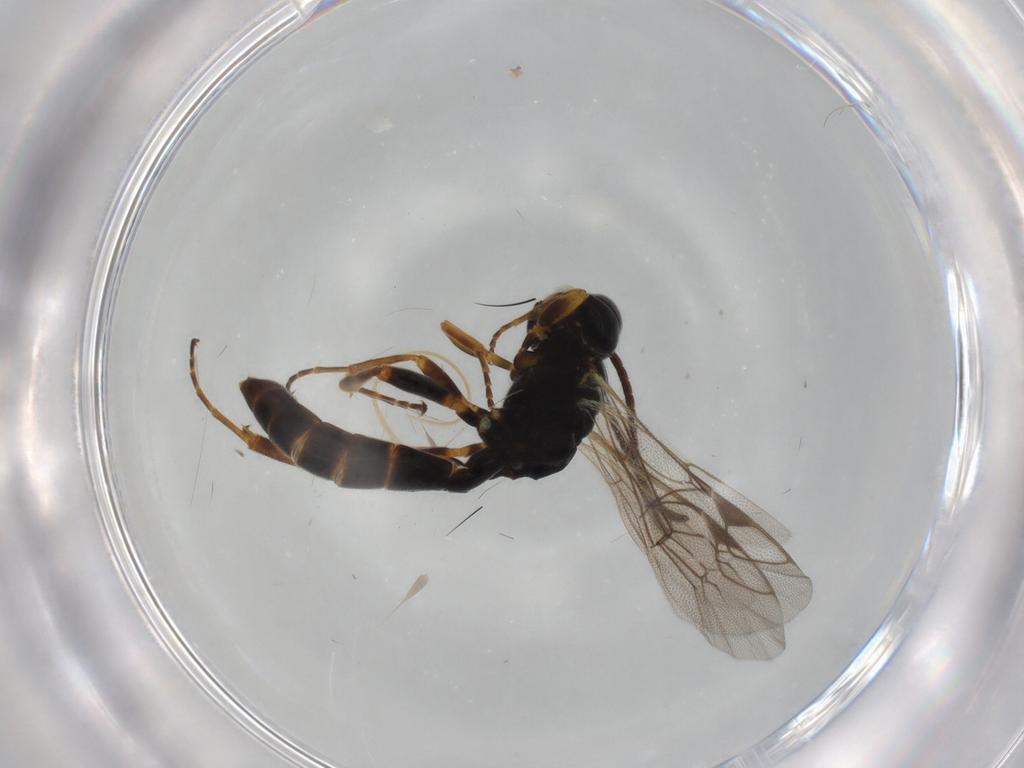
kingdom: Animalia
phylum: Arthropoda
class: Insecta
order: Hymenoptera
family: Ichneumonidae
